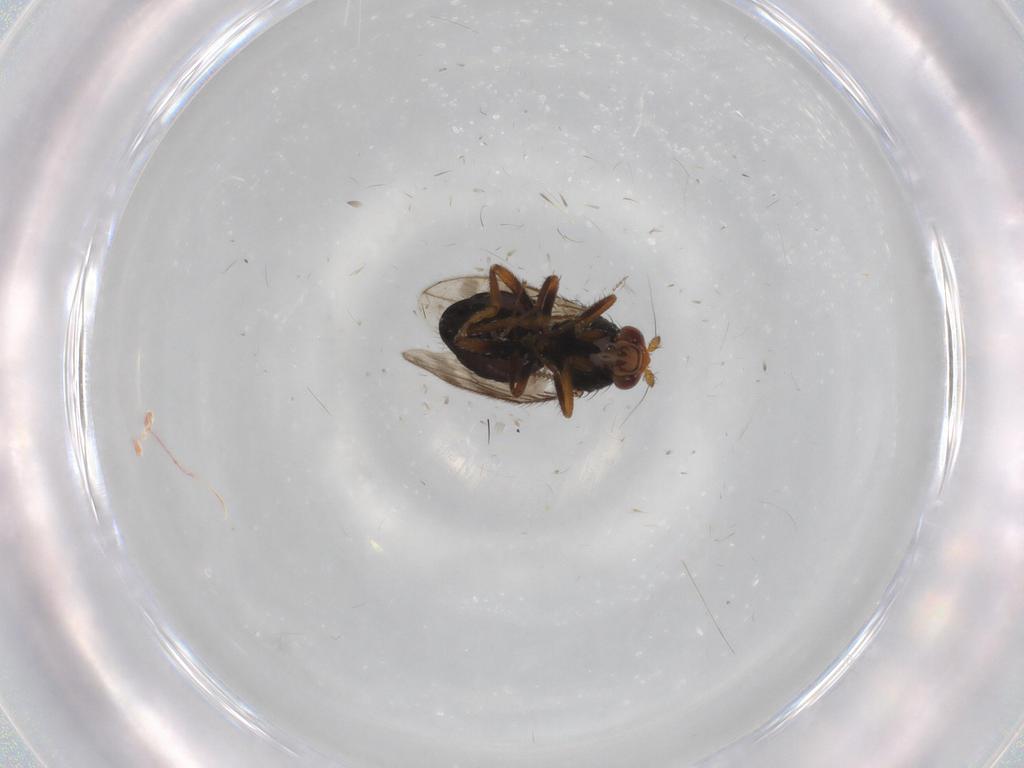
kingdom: Animalia
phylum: Arthropoda
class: Insecta
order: Diptera
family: Sphaeroceridae
